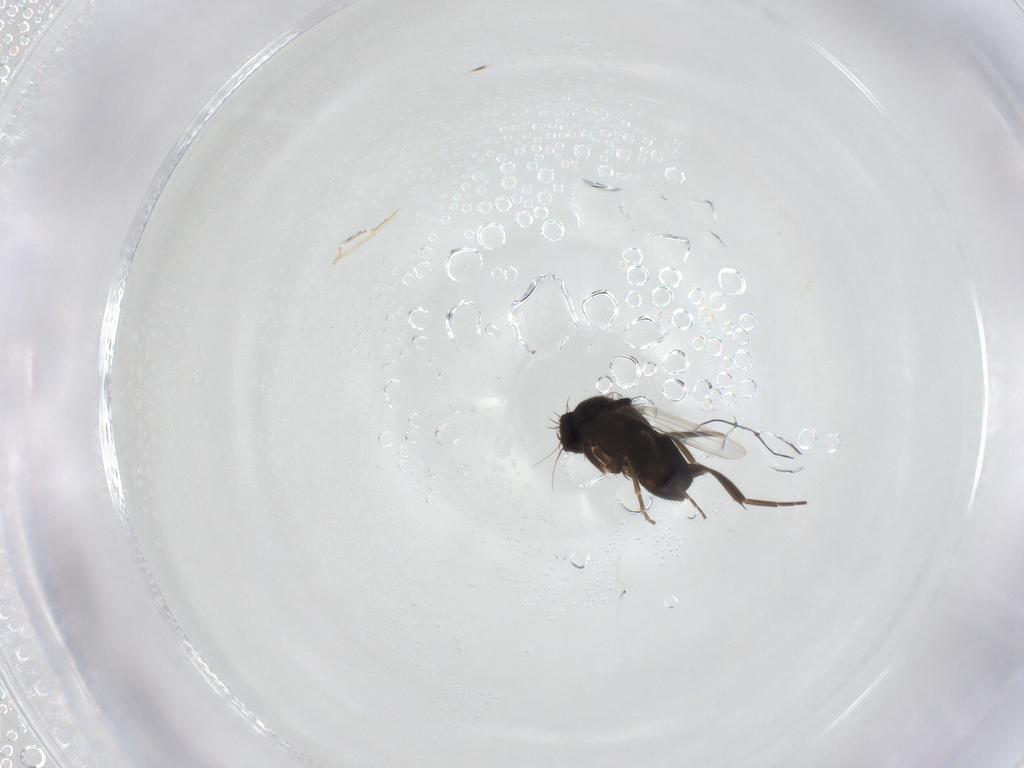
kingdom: Animalia
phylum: Arthropoda
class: Insecta
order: Diptera
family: Phoridae
